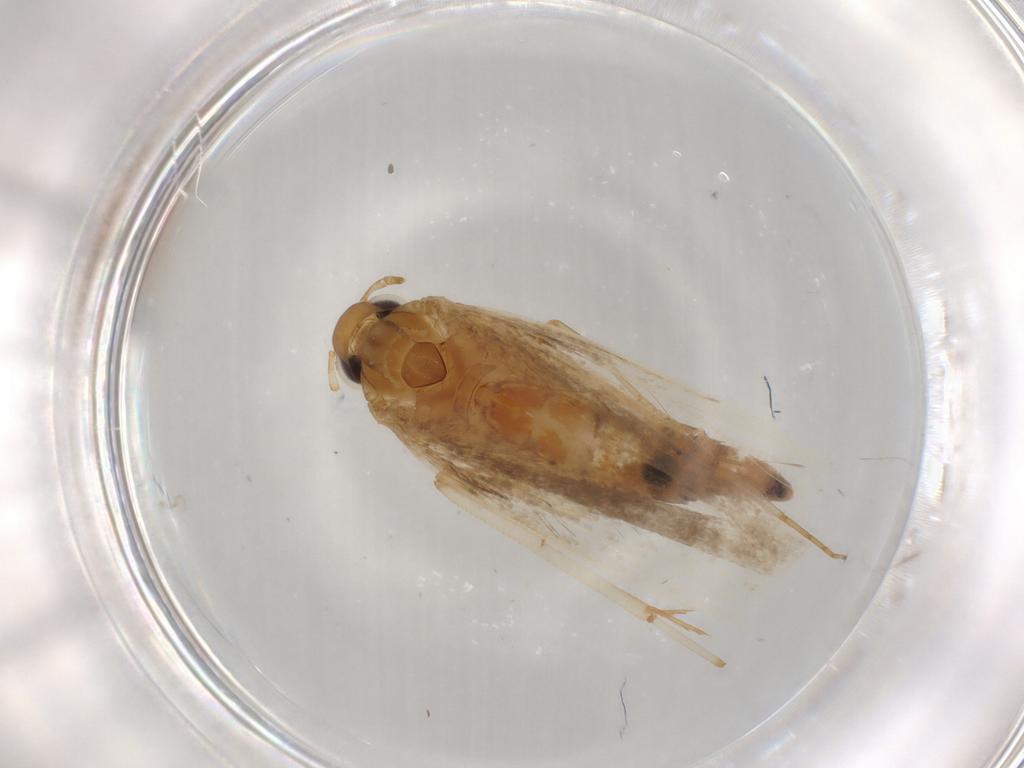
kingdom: Animalia
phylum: Arthropoda
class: Insecta
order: Lepidoptera
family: Gelechiidae
